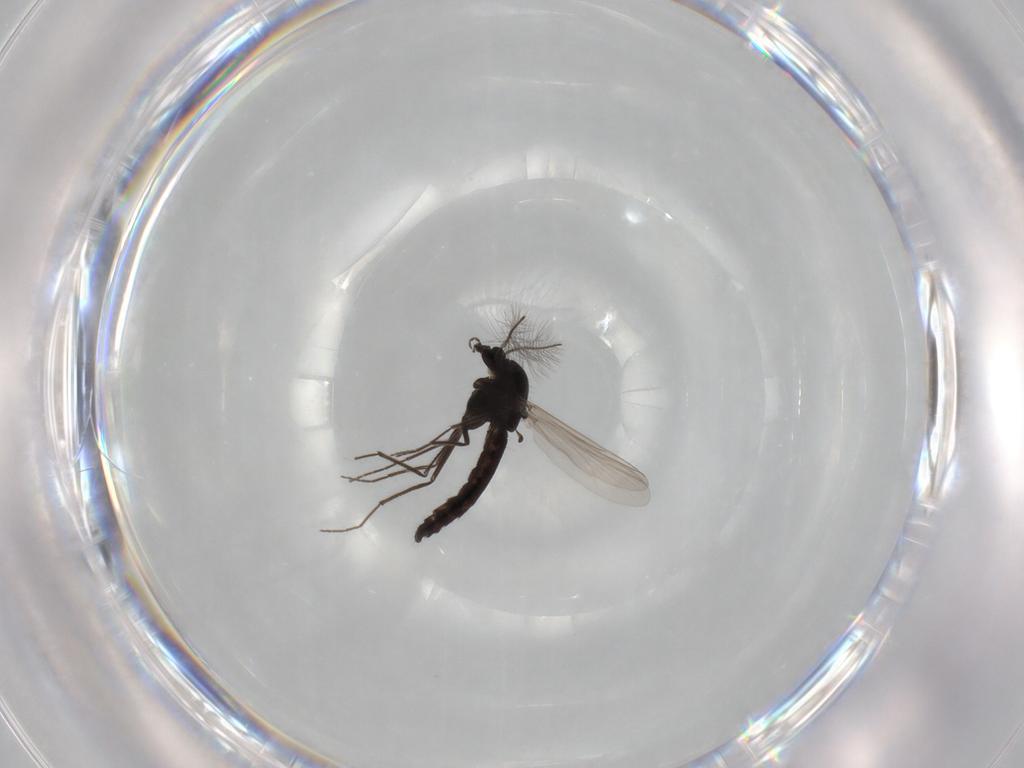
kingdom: Animalia
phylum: Arthropoda
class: Insecta
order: Diptera
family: Chironomidae
